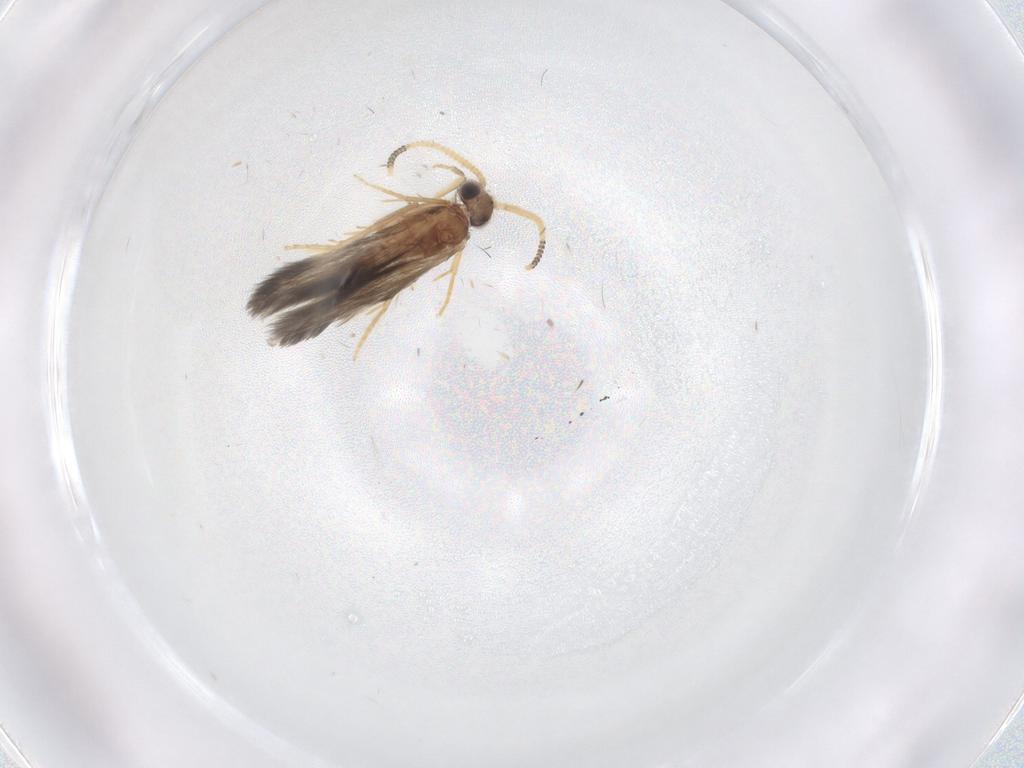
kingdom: Animalia
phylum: Arthropoda
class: Insecta
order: Trichoptera
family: Hydroptilidae
